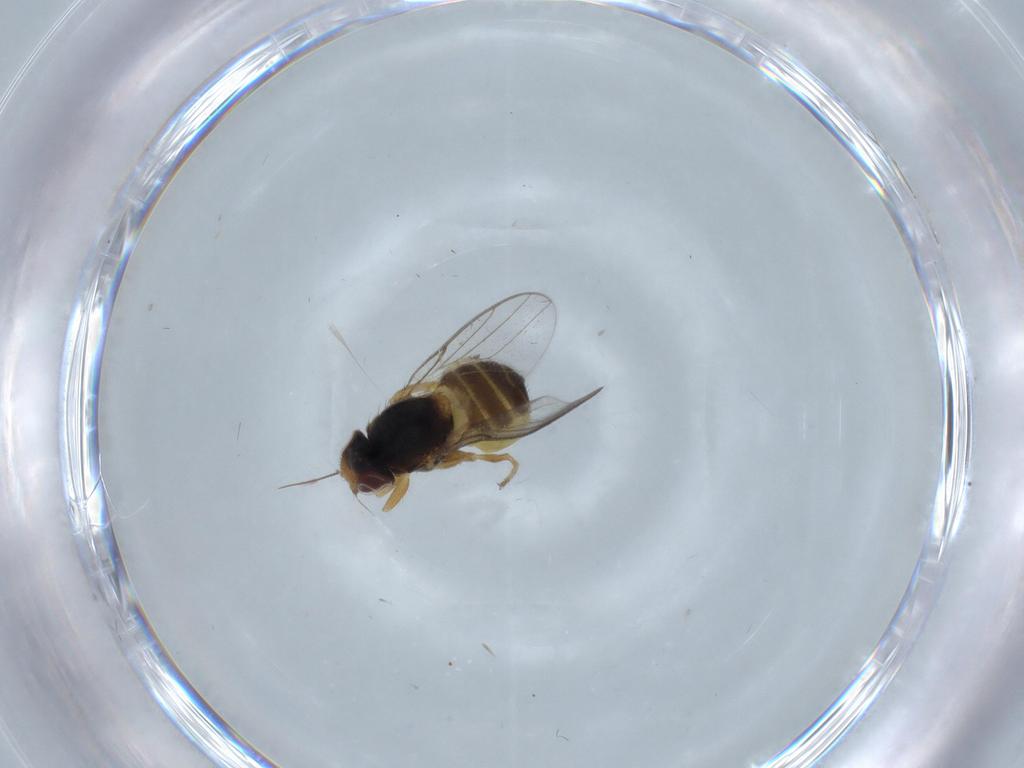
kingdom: Animalia
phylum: Arthropoda
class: Insecta
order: Diptera
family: Chloropidae
